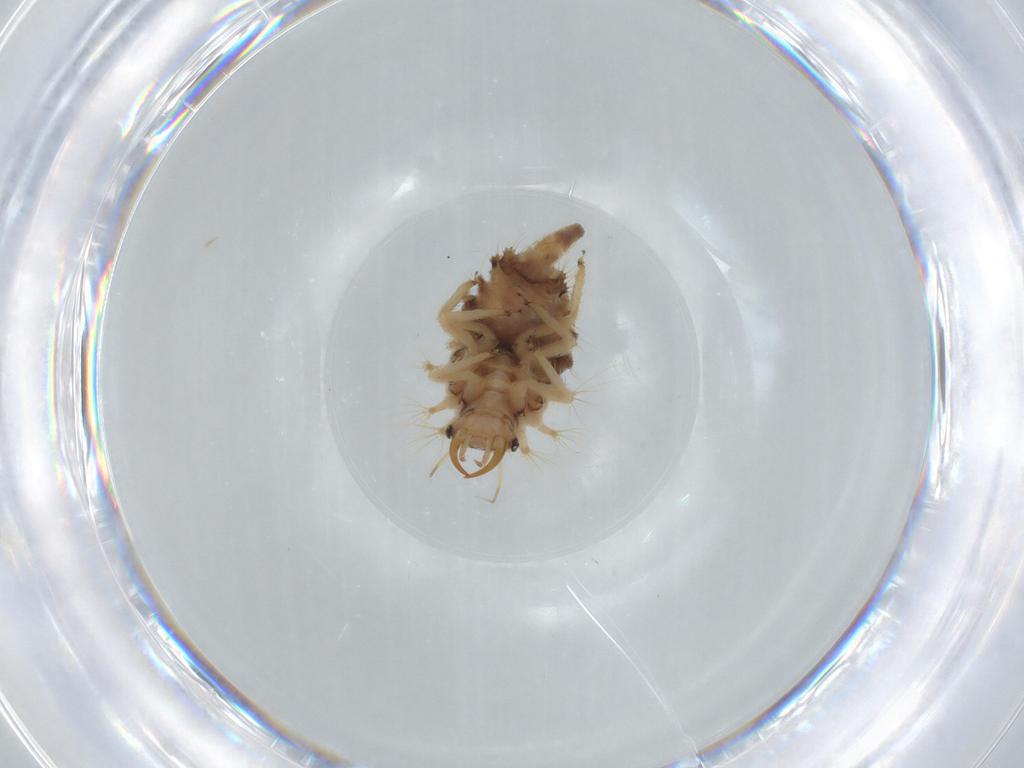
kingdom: Animalia
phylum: Arthropoda
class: Insecta
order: Neuroptera
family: Chrysopidae
